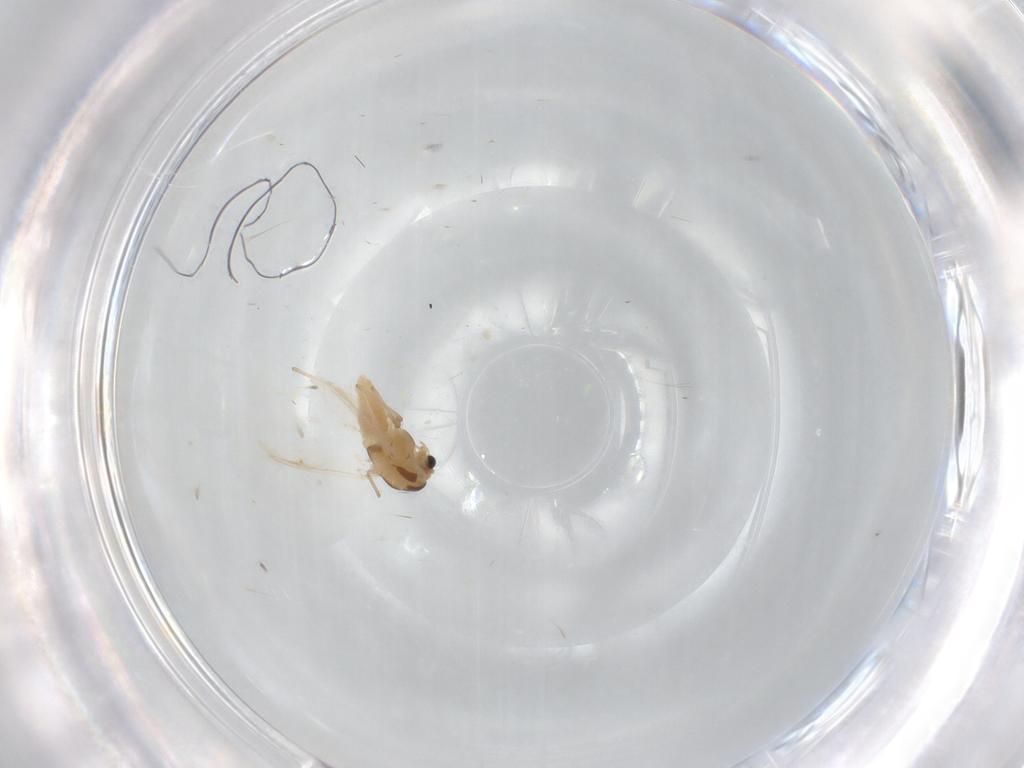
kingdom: Animalia
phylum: Arthropoda
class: Insecta
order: Diptera
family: Chironomidae
